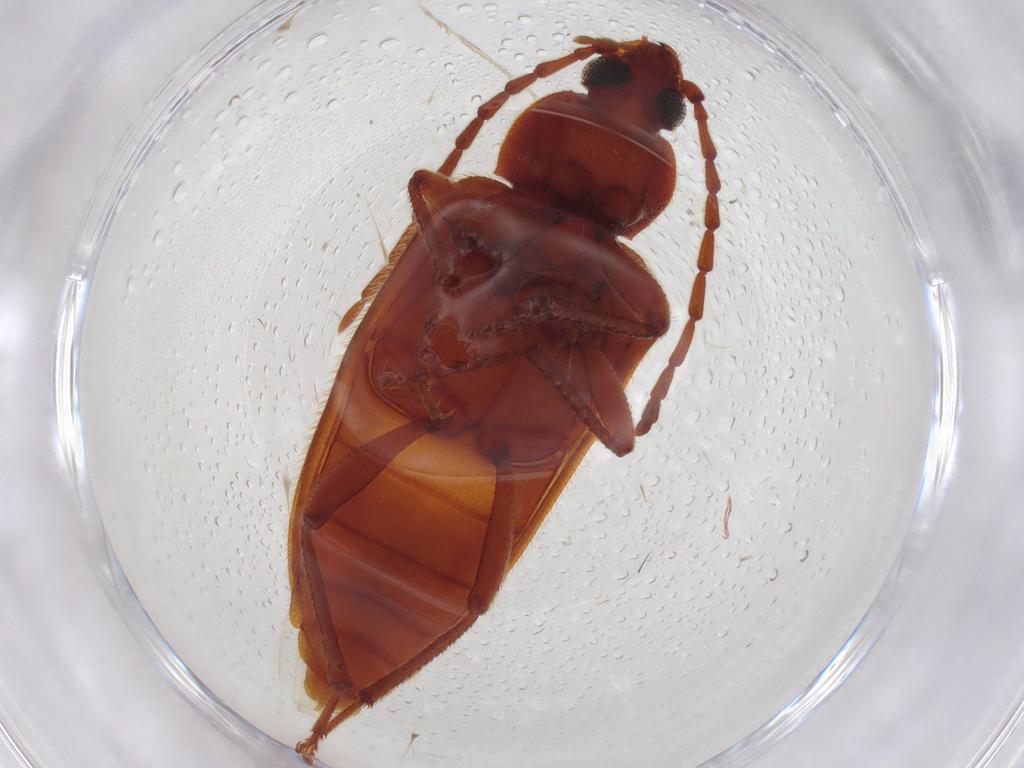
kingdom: Animalia
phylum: Arthropoda
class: Insecta
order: Coleoptera
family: Tenebrionidae
